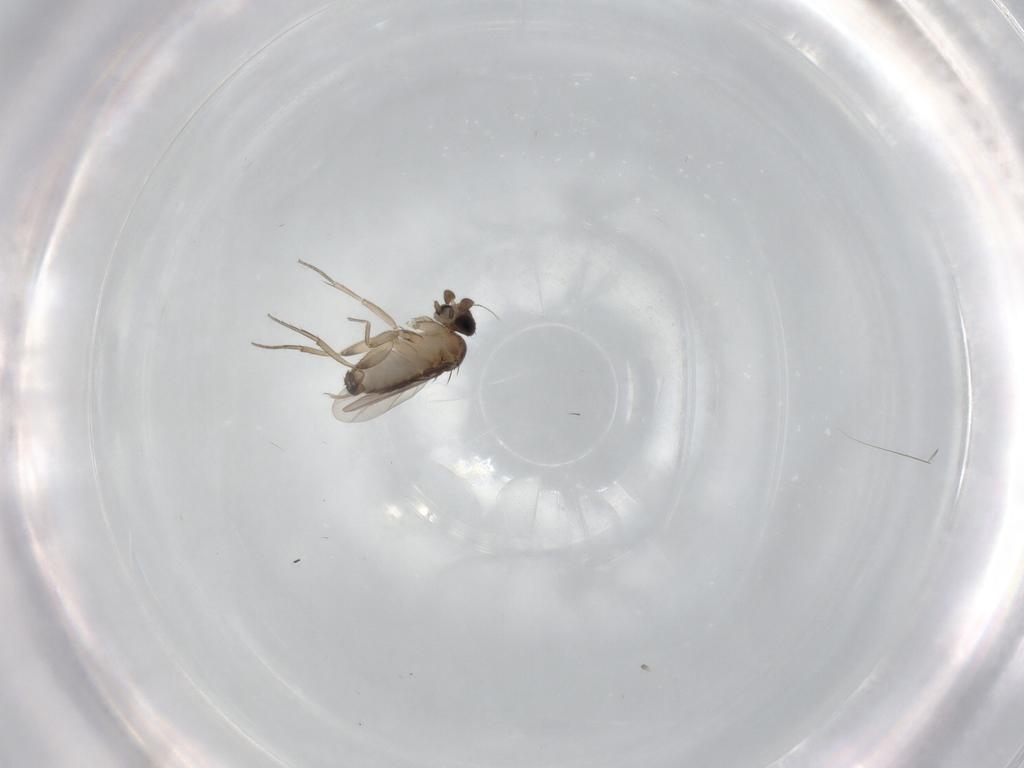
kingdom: Animalia
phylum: Arthropoda
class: Insecta
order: Diptera
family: Phoridae
